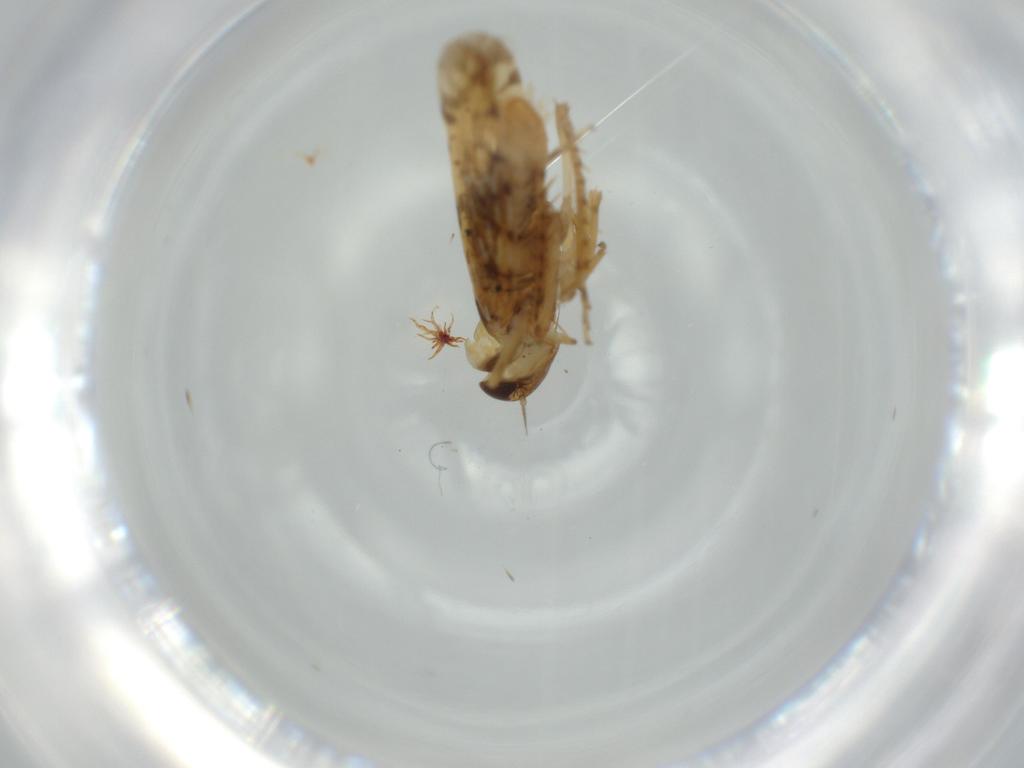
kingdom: Animalia
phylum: Arthropoda
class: Insecta
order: Hemiptera
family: Cicadellidae
